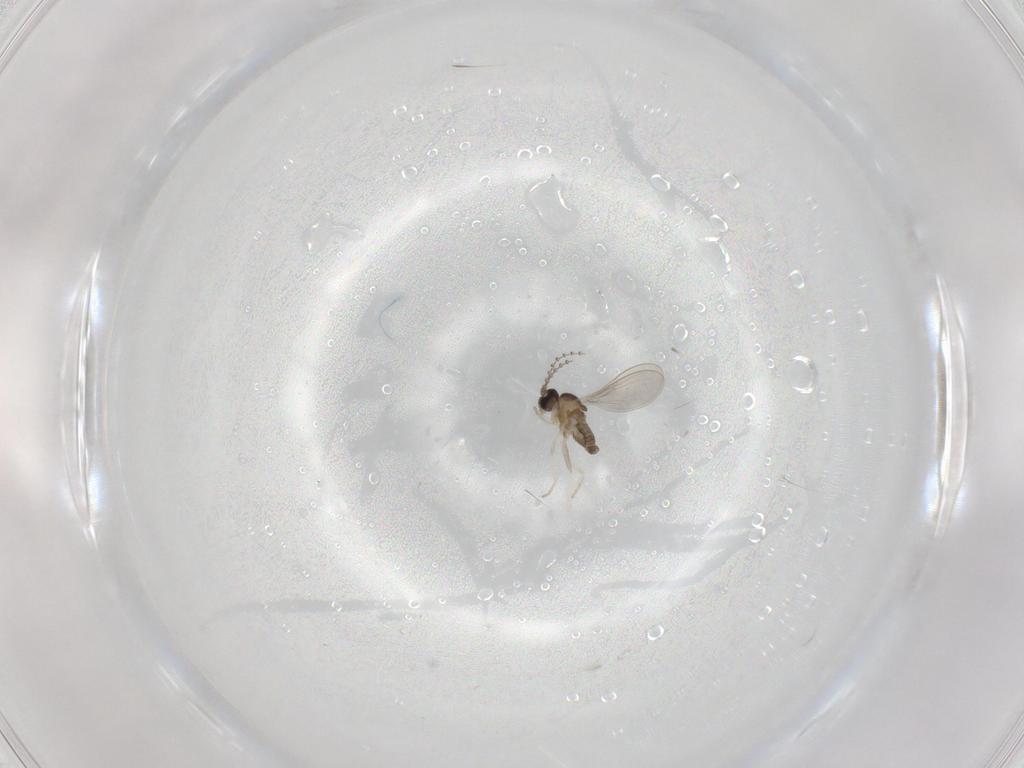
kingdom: Animalia
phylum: Arthropoda
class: Insecta
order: Diptera
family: Cecidomyiidae
